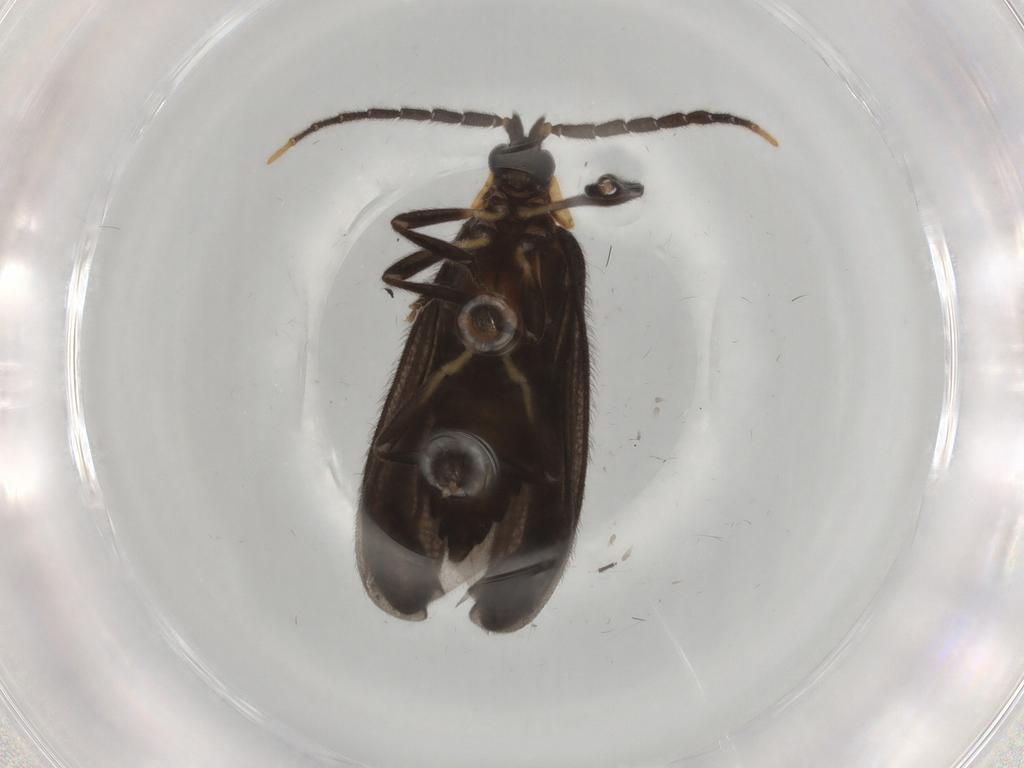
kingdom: Animalia
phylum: Arthropoda
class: Insecta
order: Coleoptera
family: Lycidae
